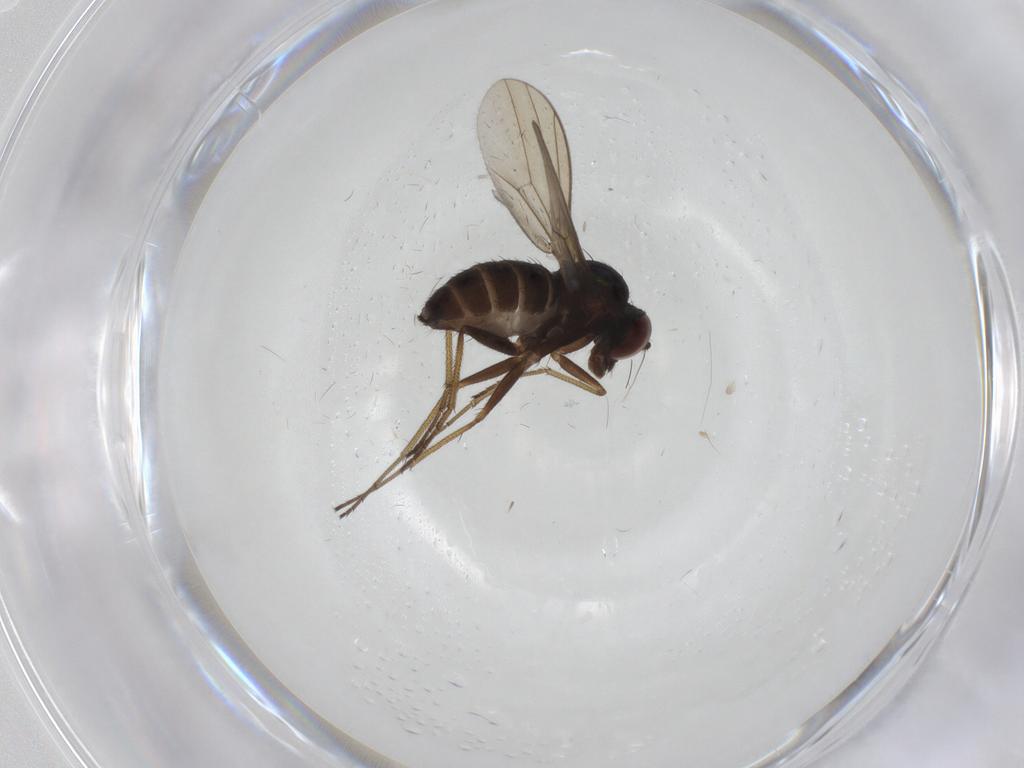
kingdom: Animalia
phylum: Arthropoda
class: Insecta
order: Diptera
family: Dolichopodidae
